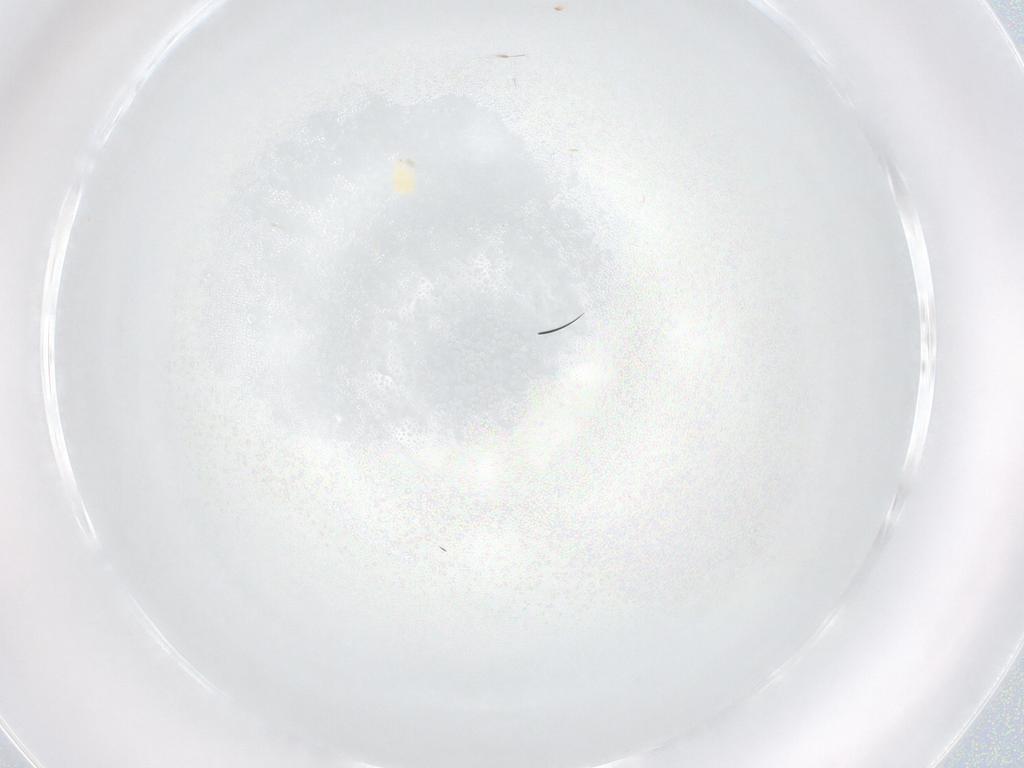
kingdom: Animalia
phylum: Arthropoda
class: Arachnida
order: Trombidiformes
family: Tetranychidae
